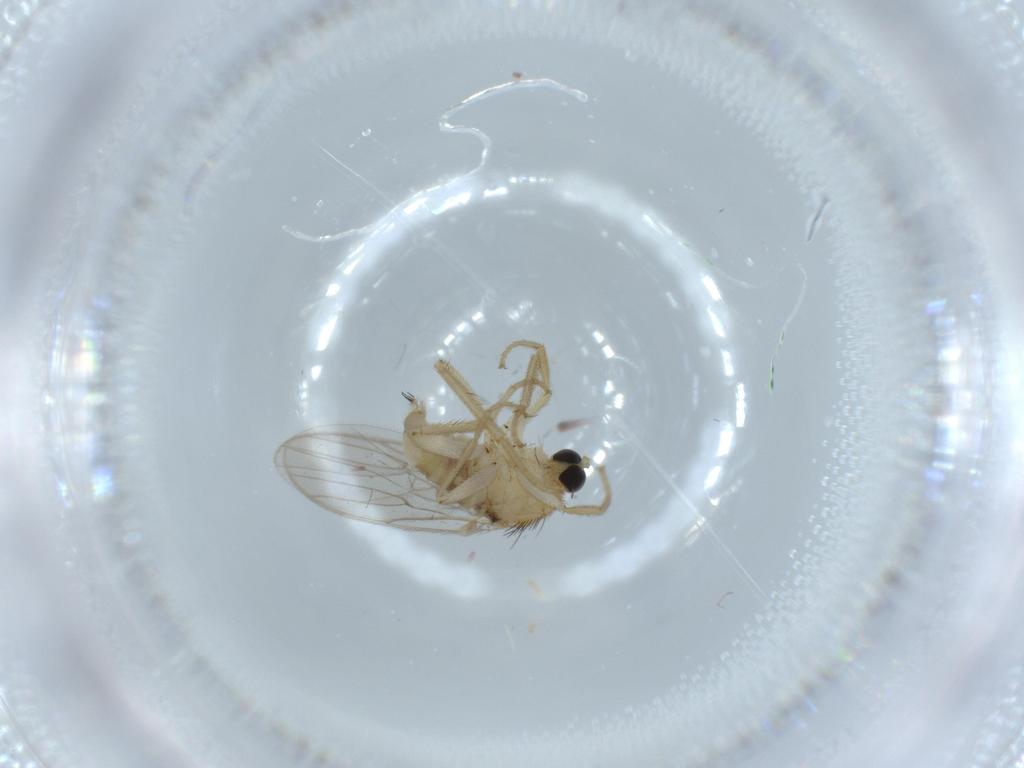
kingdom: Animalia
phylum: Arthropoda
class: Insecta
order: Diptera
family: Hybotidae
